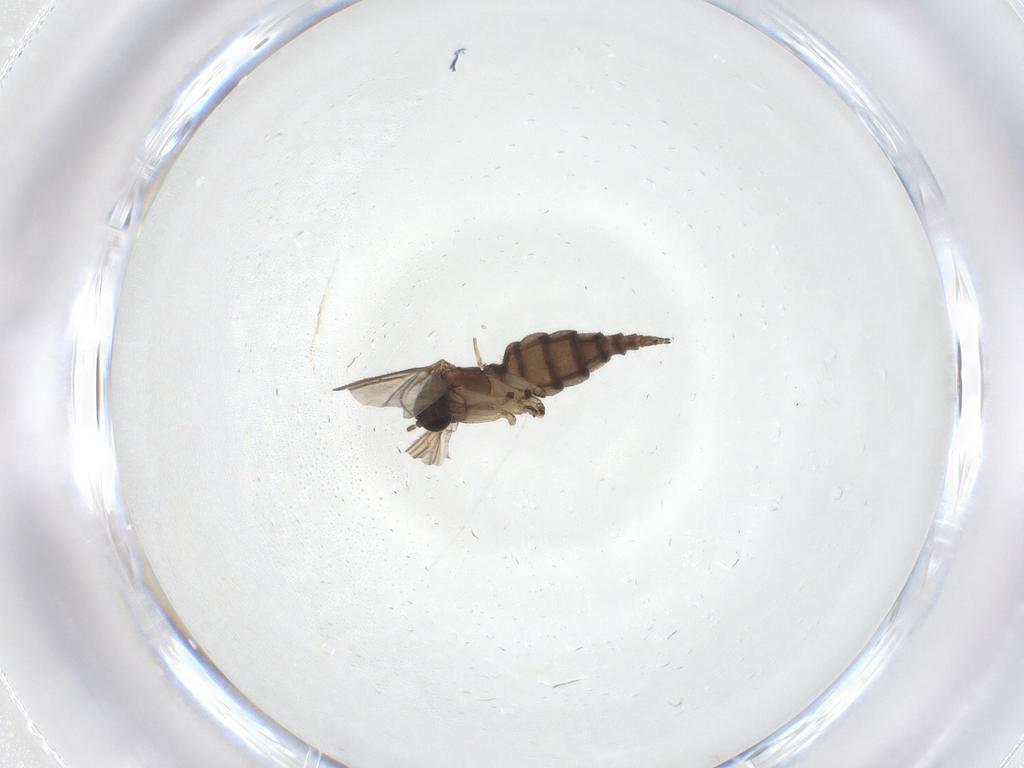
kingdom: Animalia
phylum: Arthropoda
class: Insecta
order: Diptera
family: Sciaridae
